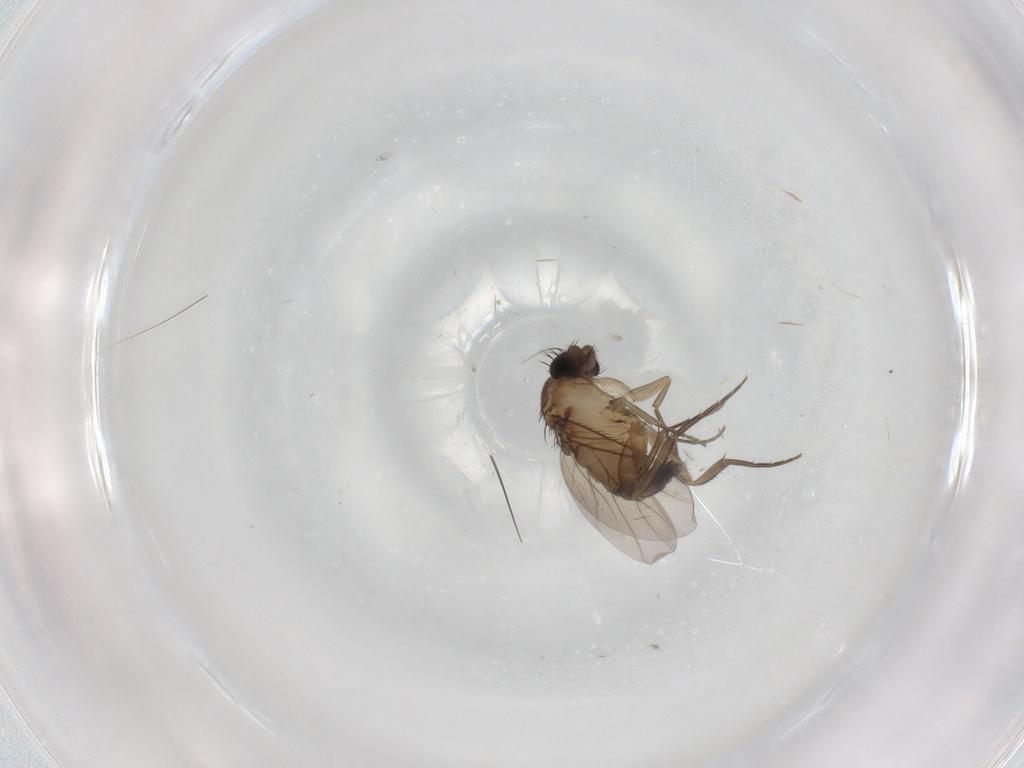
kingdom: Animalia
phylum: Arthropoda
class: Insecta
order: Diptera
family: Phoridae
